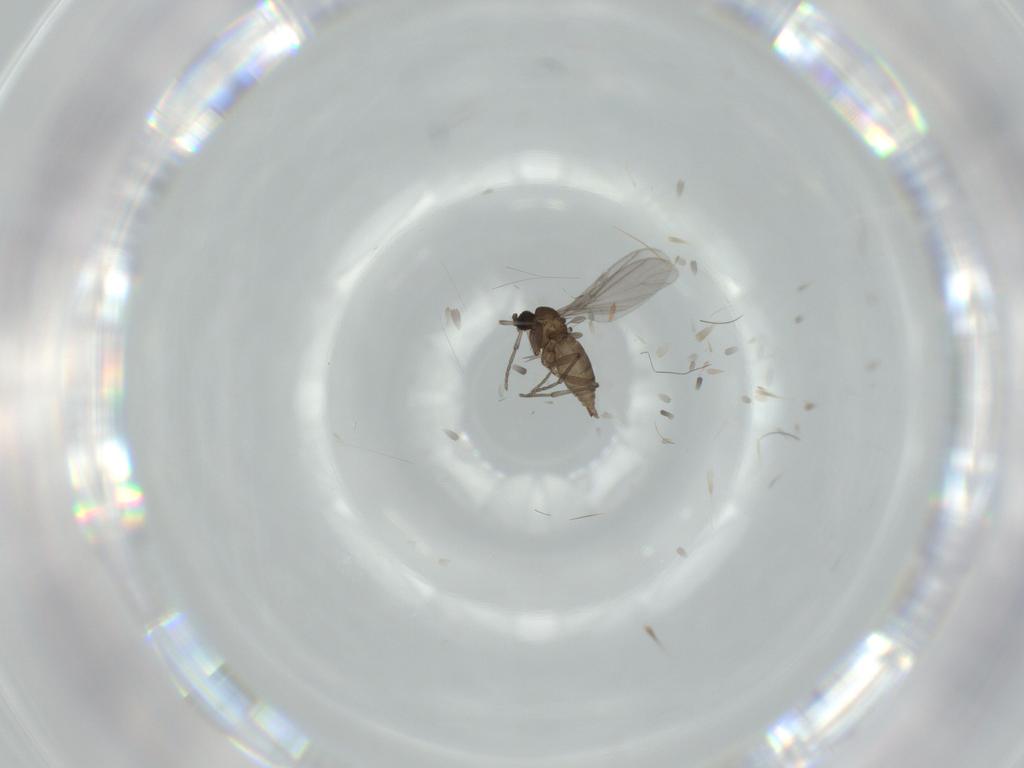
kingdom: Animalia
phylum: Arthropoda
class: Insecta
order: Diptera
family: Sciaridae
